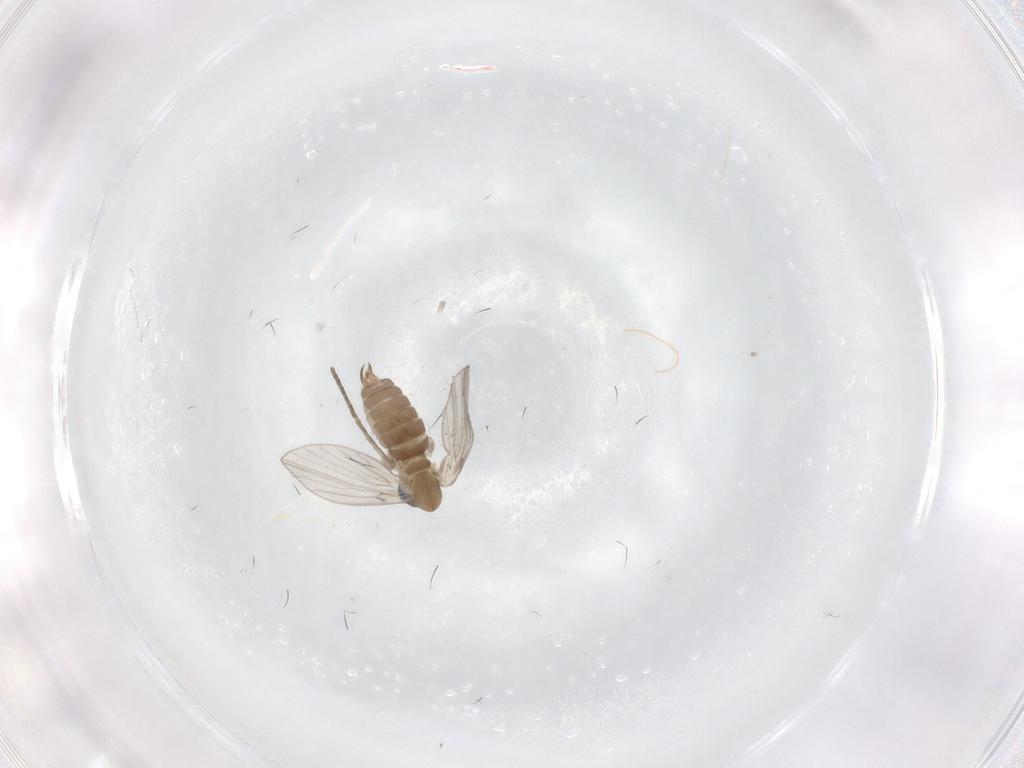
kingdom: Animalia
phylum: Arthropoda
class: Insecta
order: Diptera
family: Psychodidae
